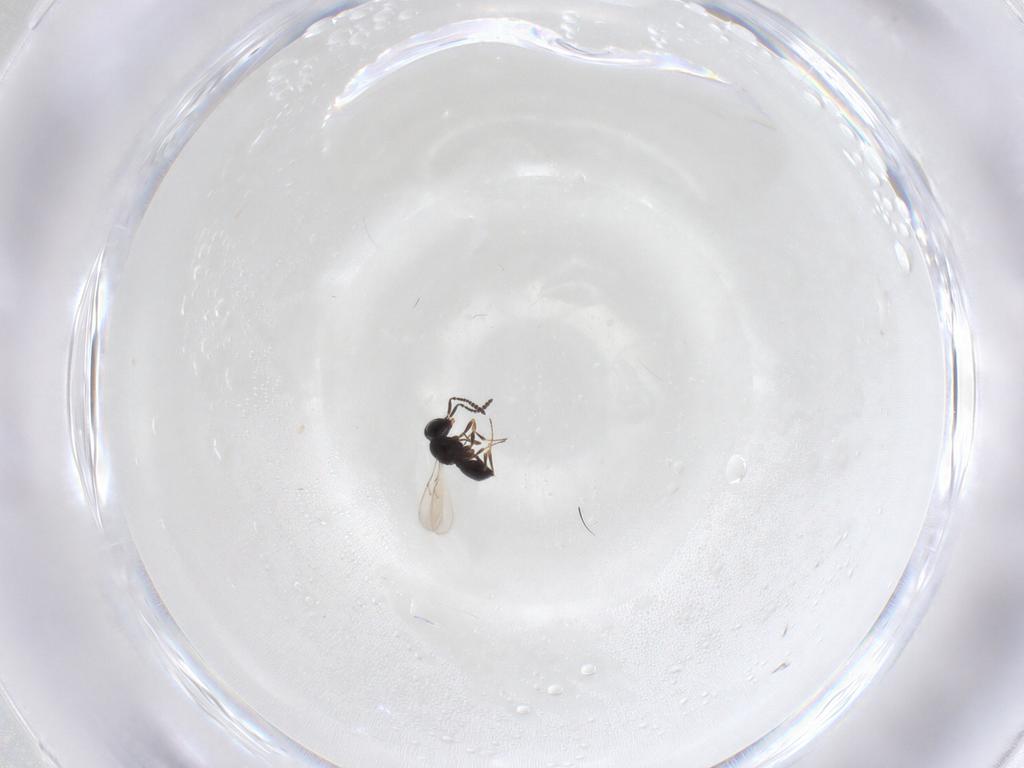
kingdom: Animalia
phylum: Arthropoda
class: Insecta
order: Hymenoptera
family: Scelionidae
